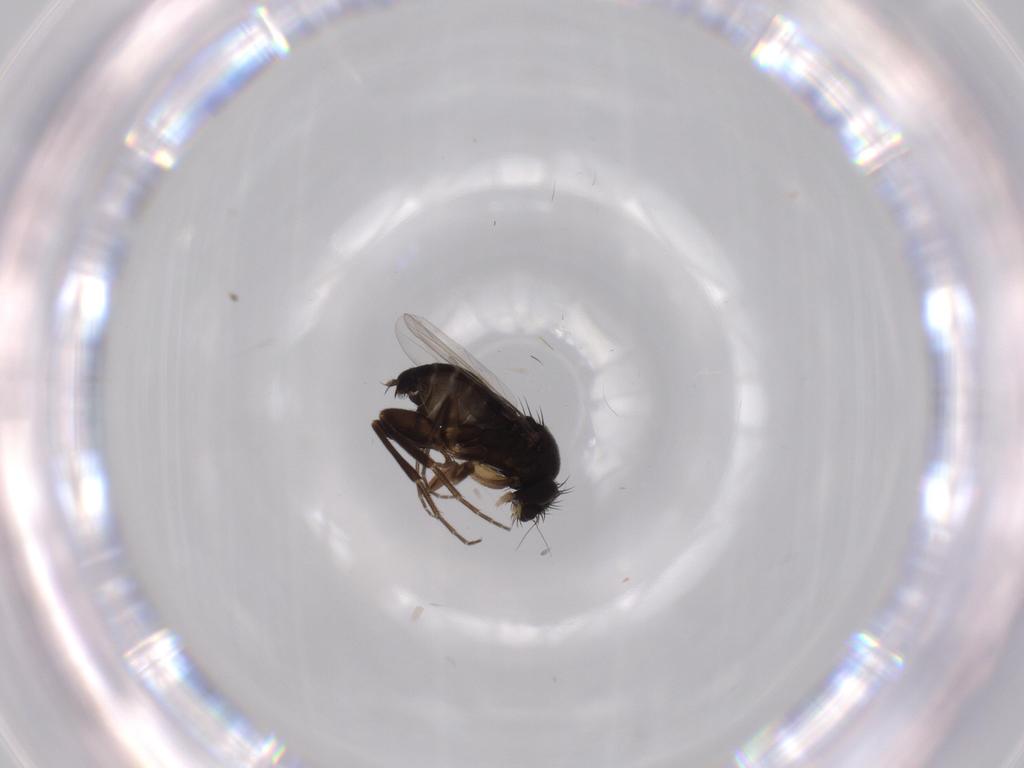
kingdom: Animalia
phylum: Arthropoda
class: Insecta
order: Diptera
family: Phoridae
